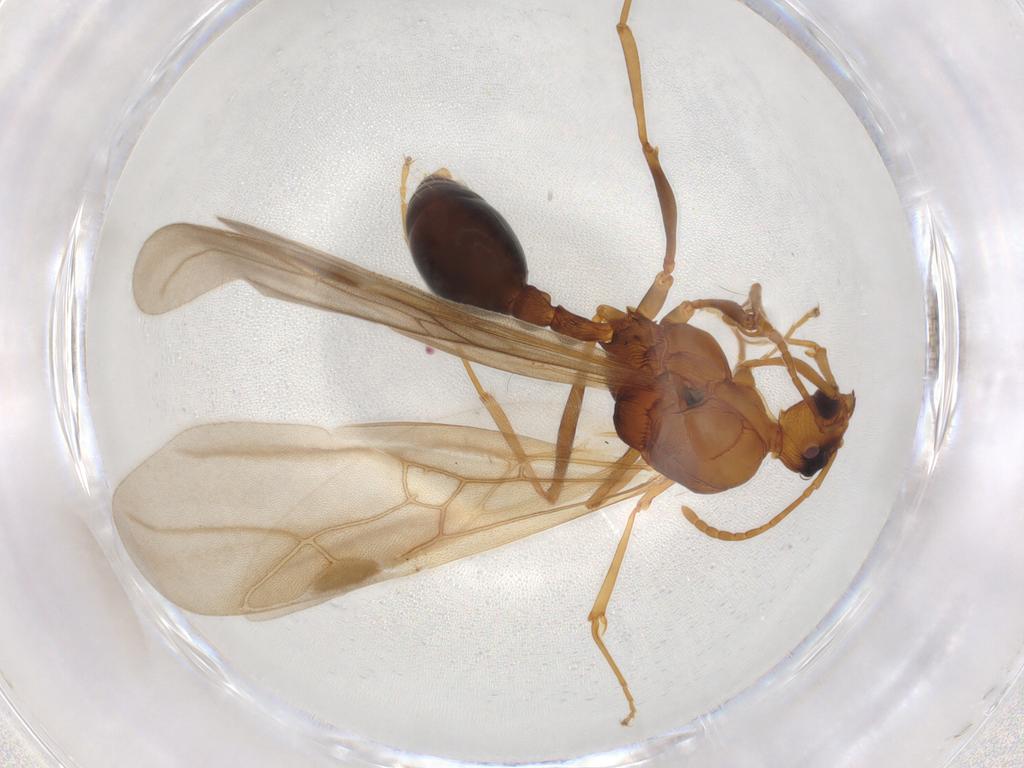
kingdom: Animalia
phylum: Arthropoda
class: Insecta
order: Hymenoptera
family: Formicidae
